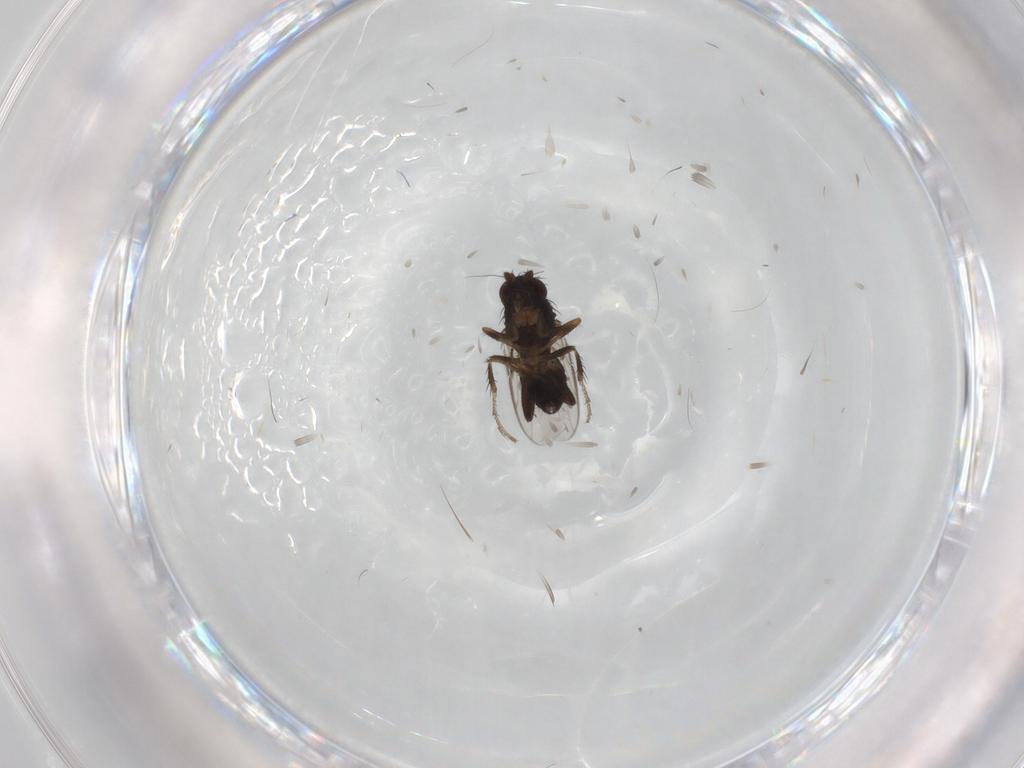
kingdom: Animalia
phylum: Arthropoda
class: Insecta
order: Diptera
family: Sphaeroceridae
